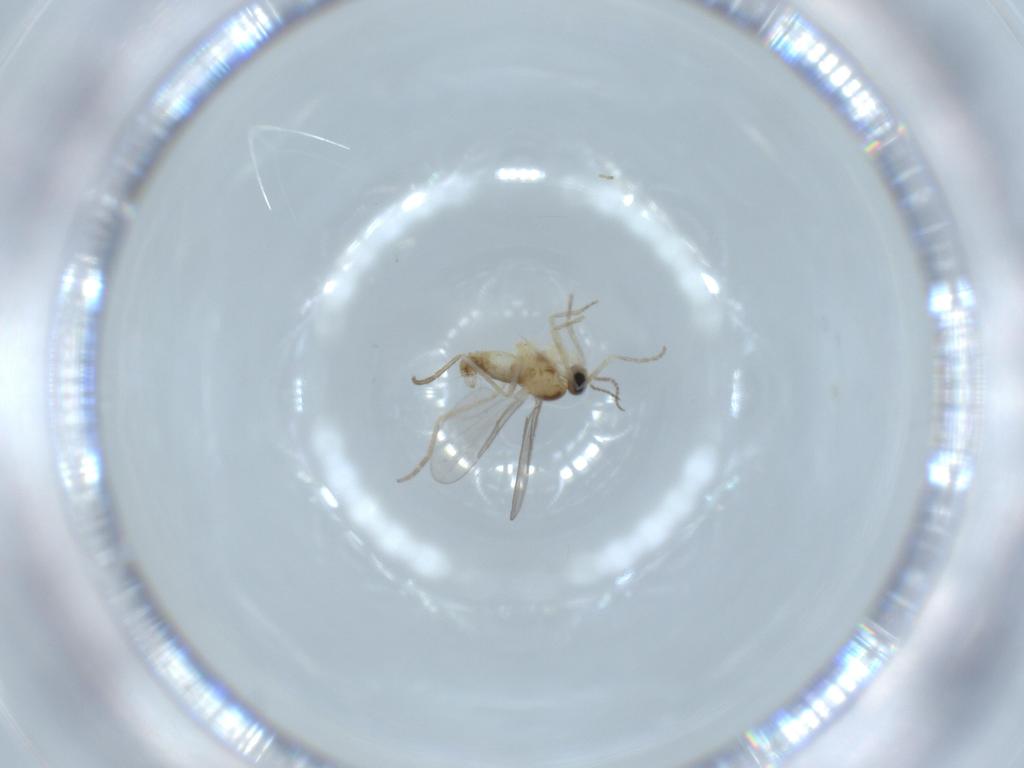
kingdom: Animalia
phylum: Arthropoda
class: Insecta
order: Diptera
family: Cecidomyiidae
